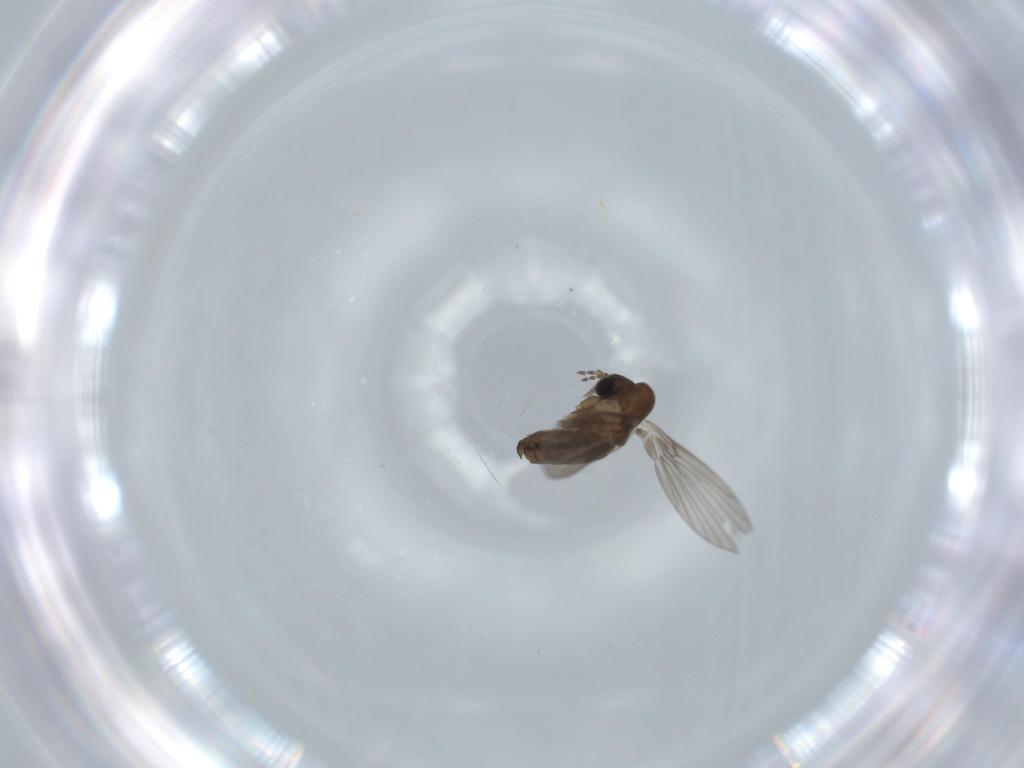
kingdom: Animalia
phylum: Arthropoda
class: Insecta
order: Diptera
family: Psychodidae
